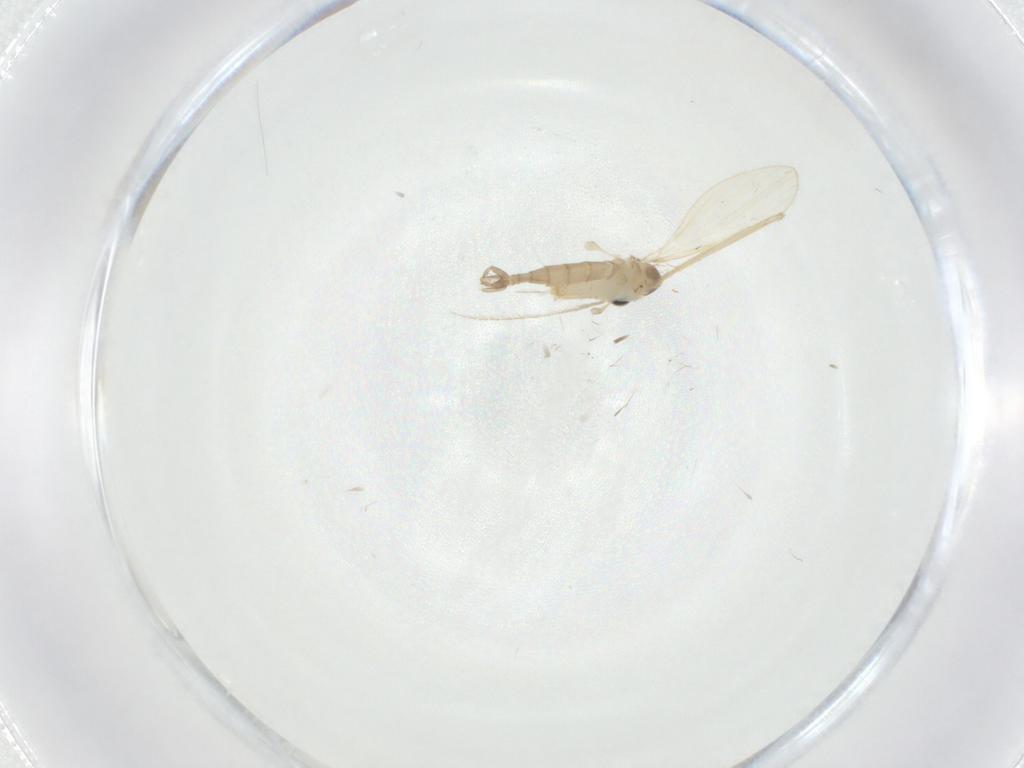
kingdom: Animalia
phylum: Arthropoda
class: Insecta
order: Diptera
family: Psychodidae
